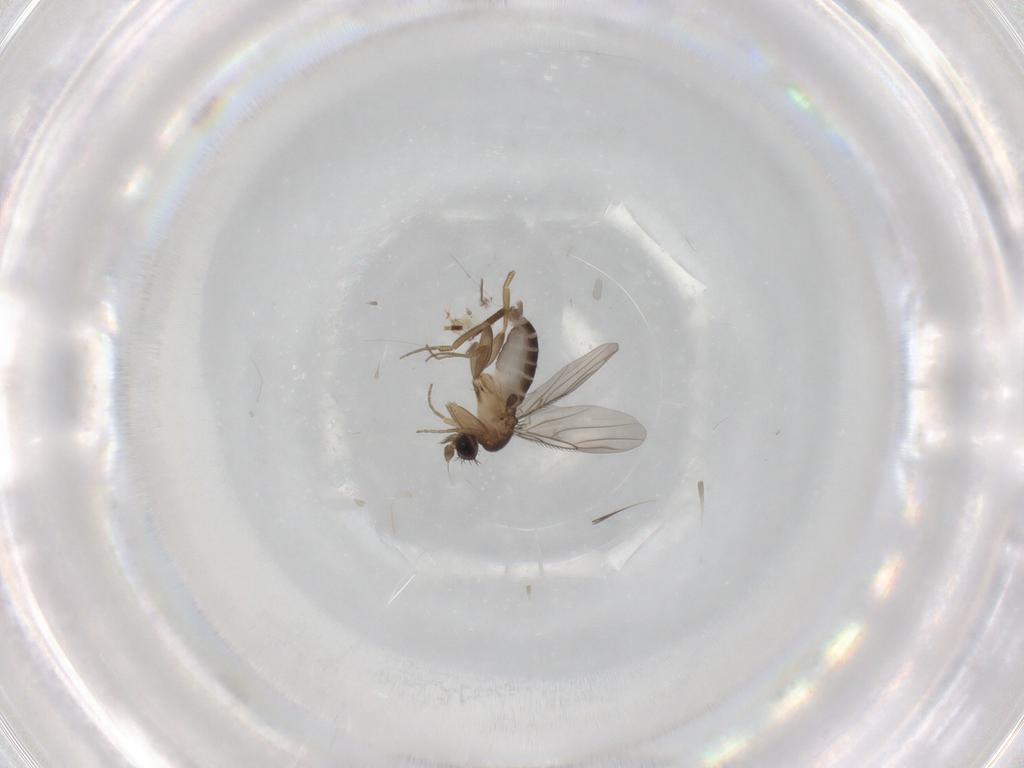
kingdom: Animalia
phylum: Arthropoda
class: Insecta
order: Diptera
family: Phoridae
